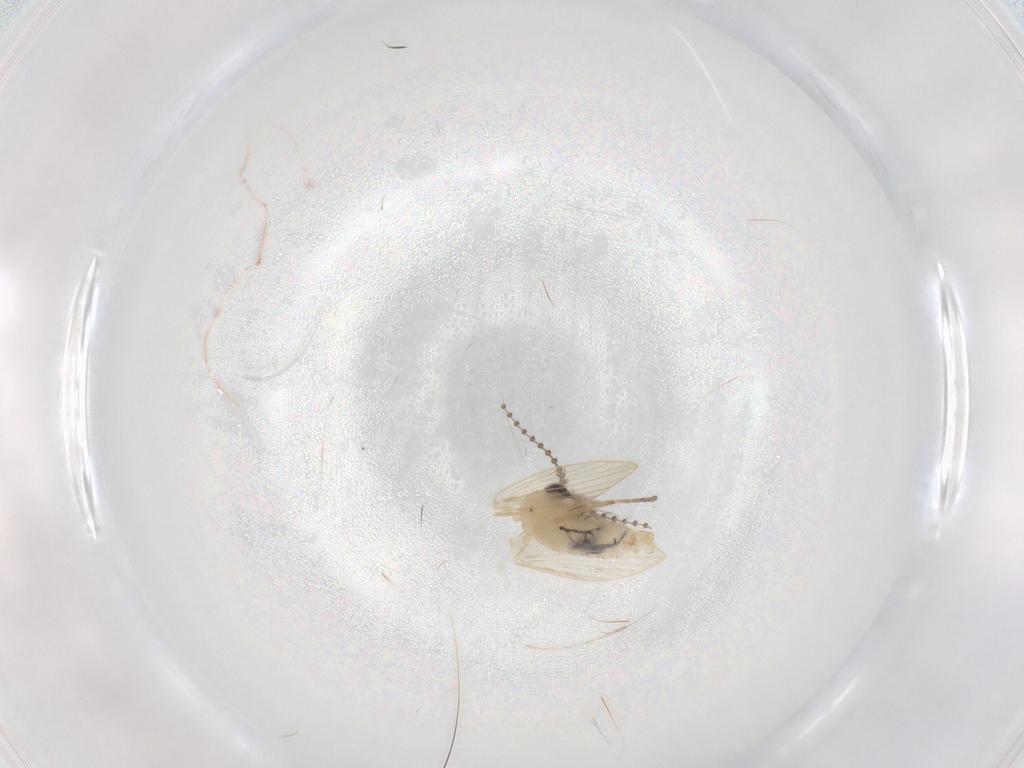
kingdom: Animalia
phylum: Arthropoda
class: Insecta
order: Diptera
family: Psychodidae
